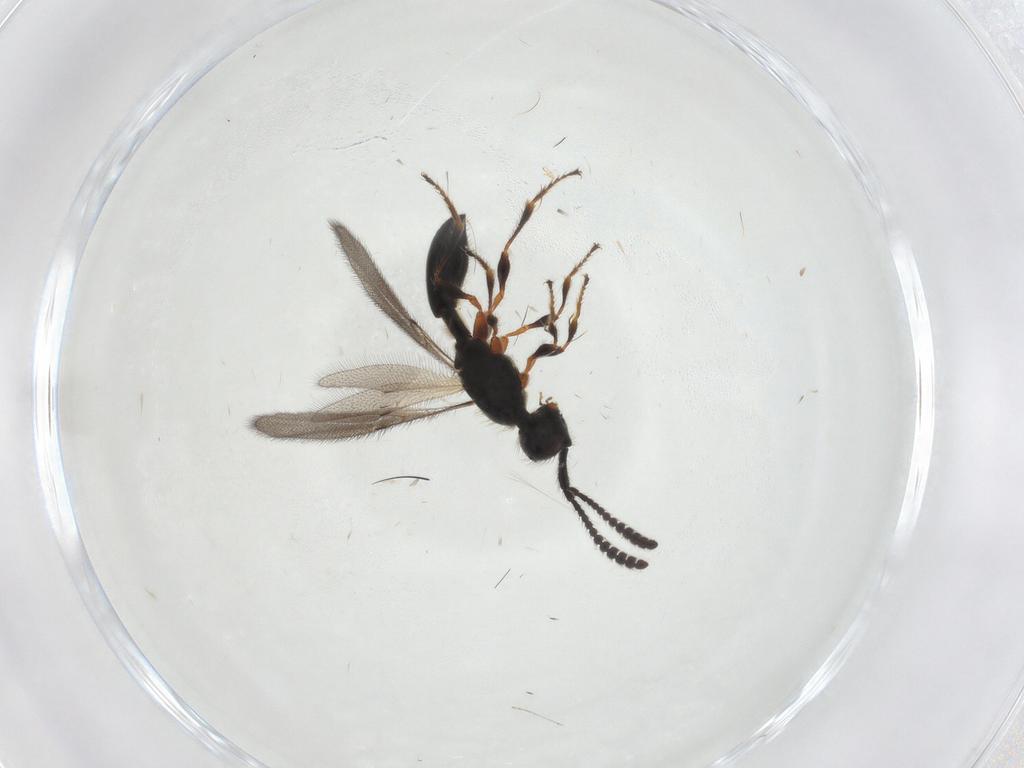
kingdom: Animalia
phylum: Arthropoda
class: Insecta
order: Hymenoptera
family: Diapriidae
